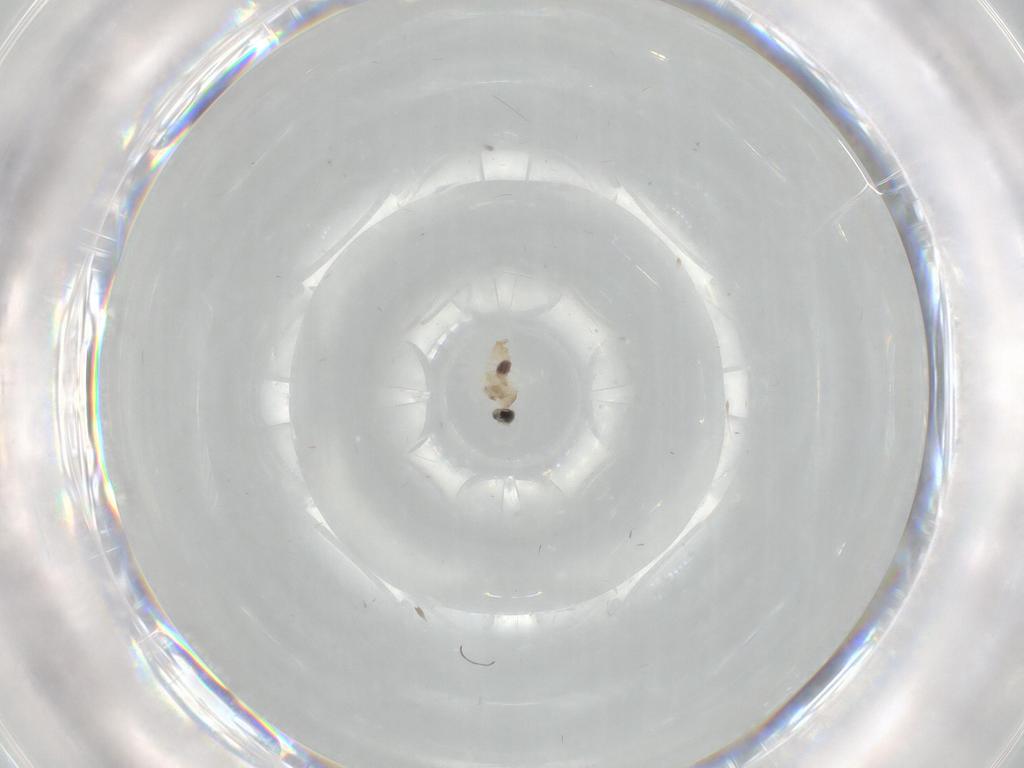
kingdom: Animalia
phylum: Arthropoda
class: Insecta
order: Diptera
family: Cecidomyiidae
